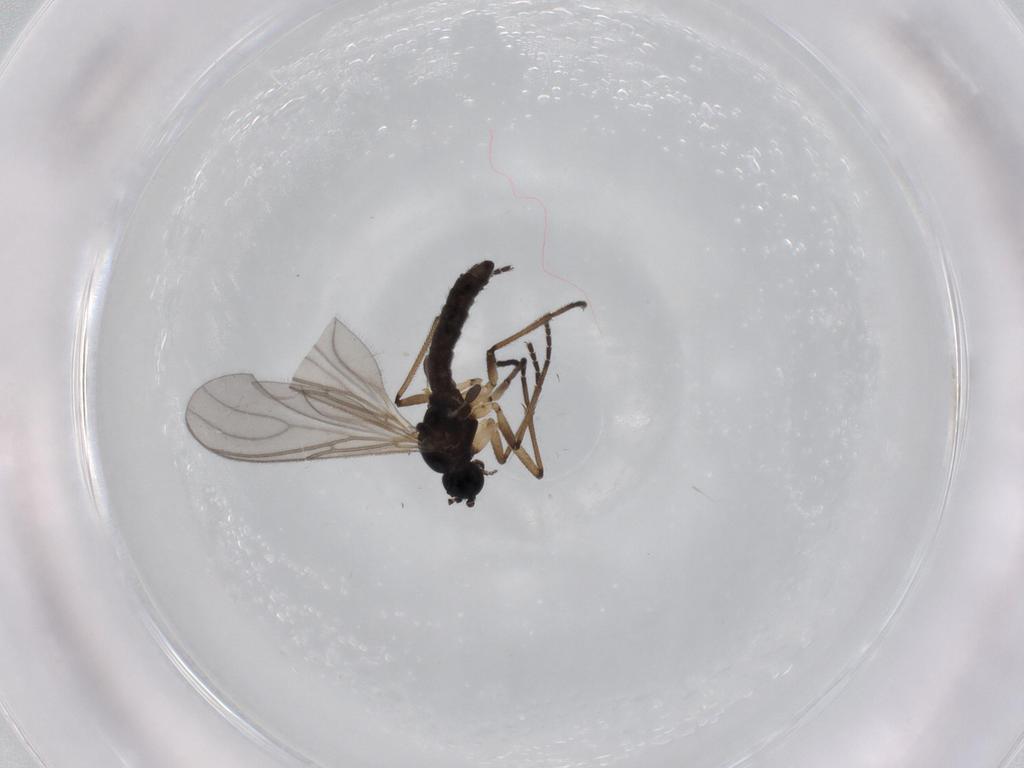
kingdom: Animalia
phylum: Arthropoda
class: Insecta
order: Diptera
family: Sciaridae
